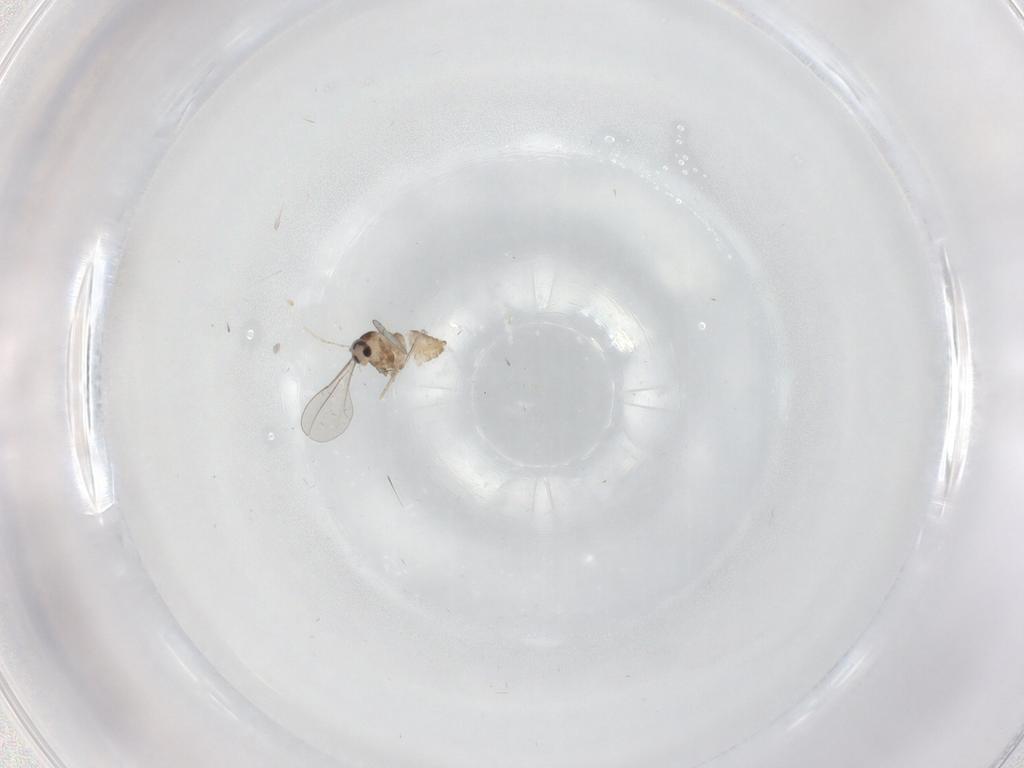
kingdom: Animalia
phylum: Arthropoda
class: Insecta
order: Diptera
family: Cecidomyiidae
